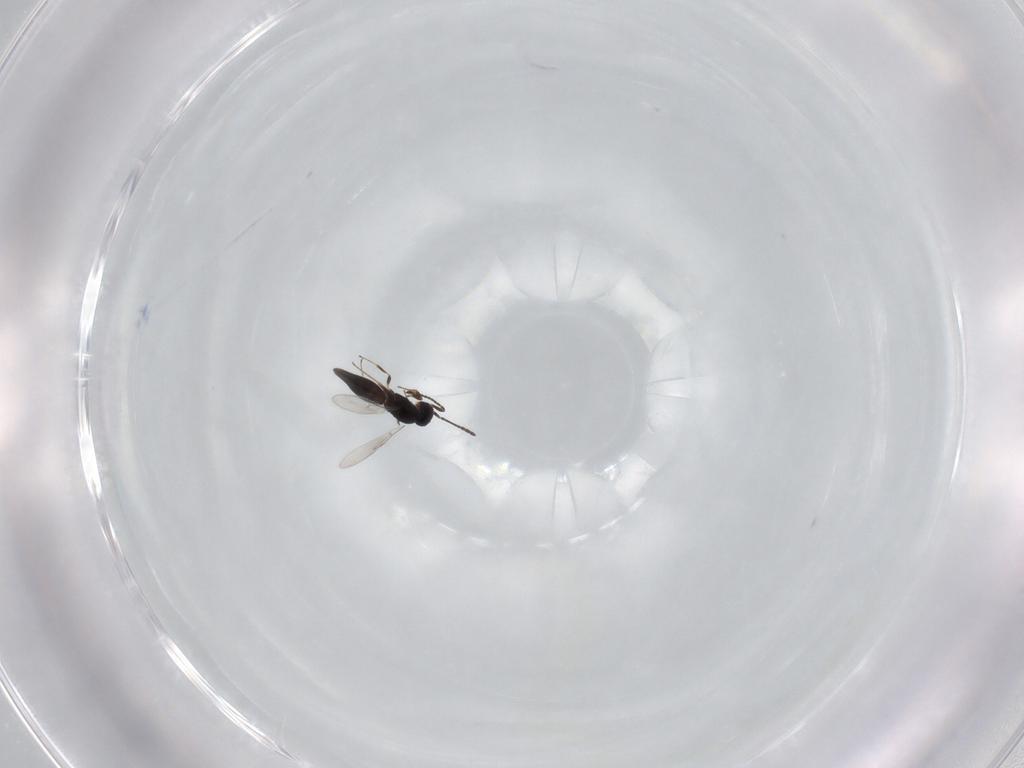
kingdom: Animalia
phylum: Arthropoda
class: Insecta
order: Hymenoptera
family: Scelionidae
